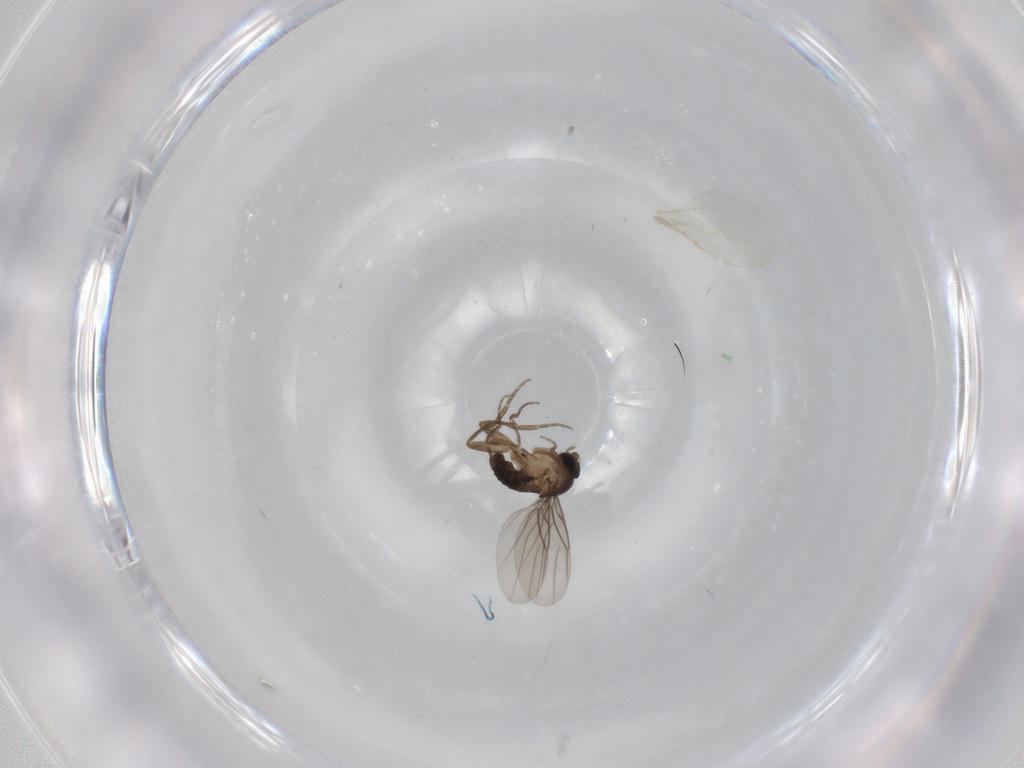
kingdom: Animalia
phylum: Arthropoda
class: Insecta
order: Diptera
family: Phoridae
